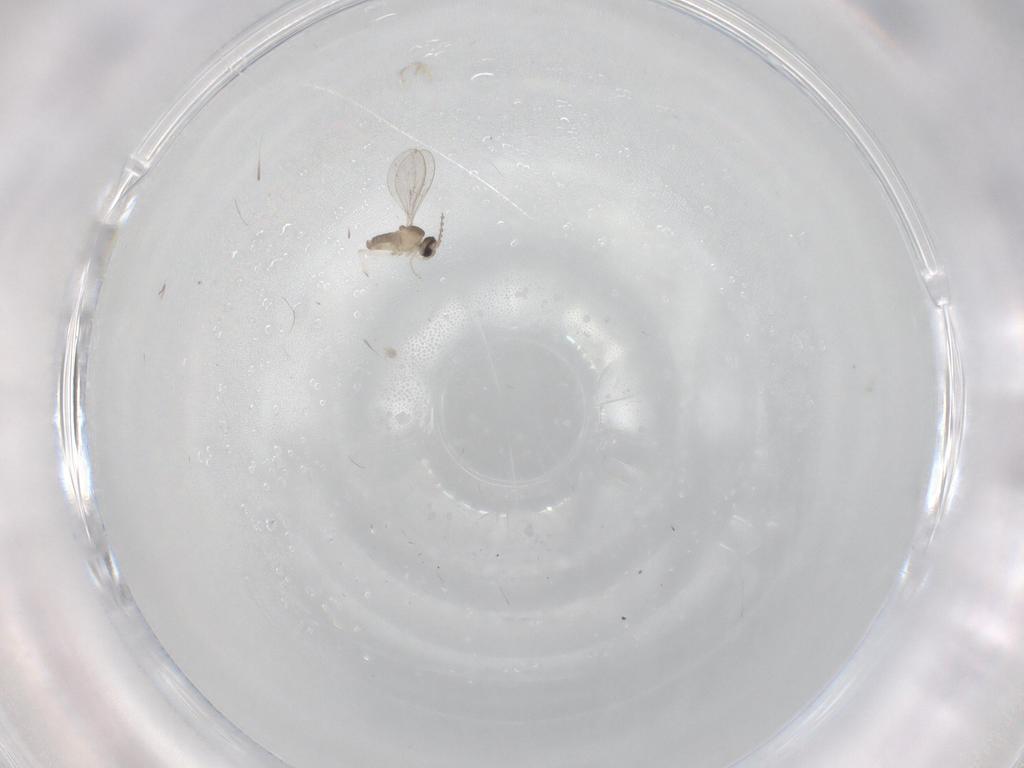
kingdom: Animalia
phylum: Arthropoda
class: Insecta
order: Diptera
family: Cecidomyiidae
